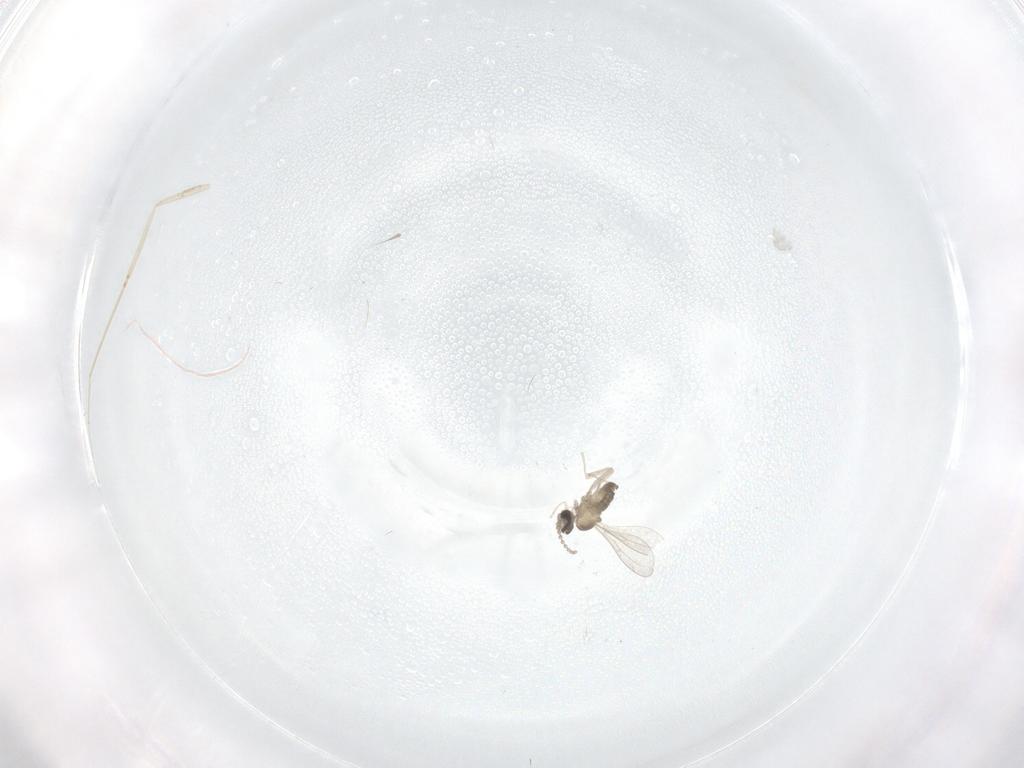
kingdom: Animalia
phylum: Arthropoda
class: Insecta
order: Diptera
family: Cecidomyiidae
